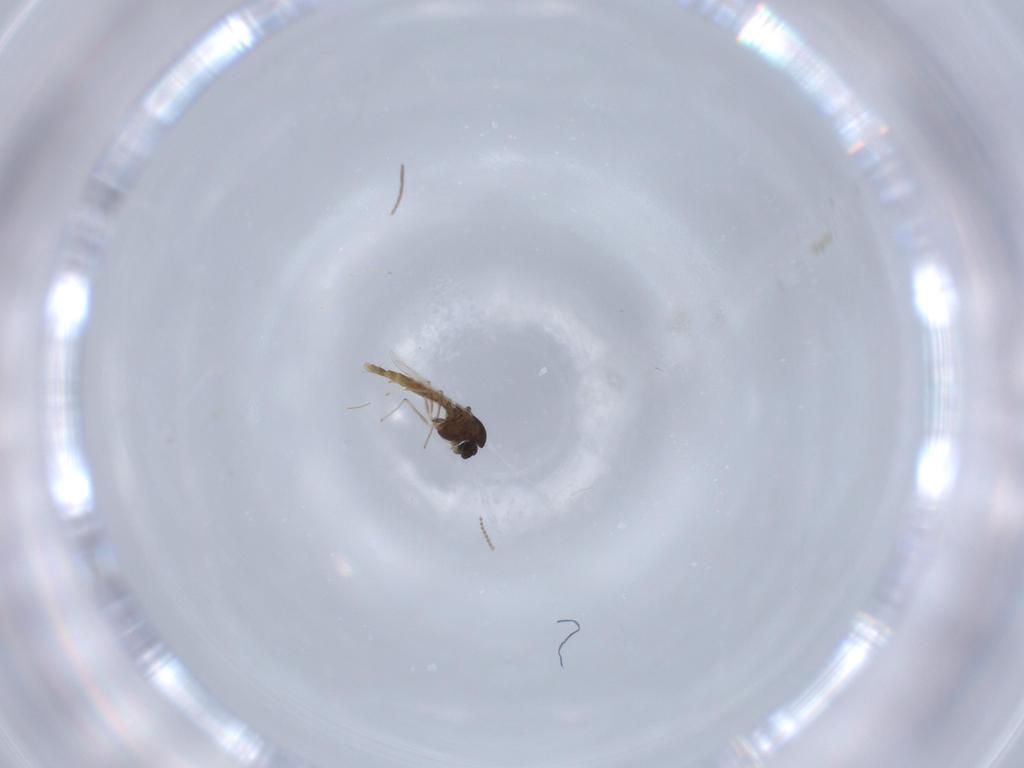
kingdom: Animalia
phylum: Arthropoda
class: Insecta
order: Diptera
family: Chironomidae
